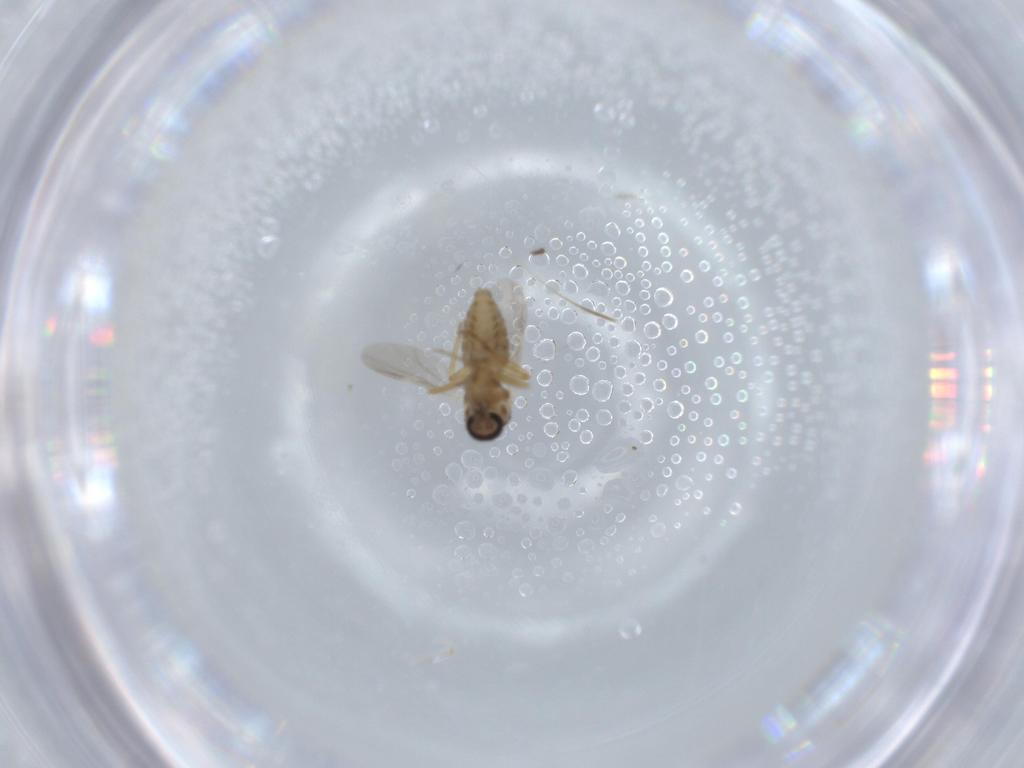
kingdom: Animalia
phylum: Arthropoda
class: Insecta
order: Diptera
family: Ceratopogonidae
